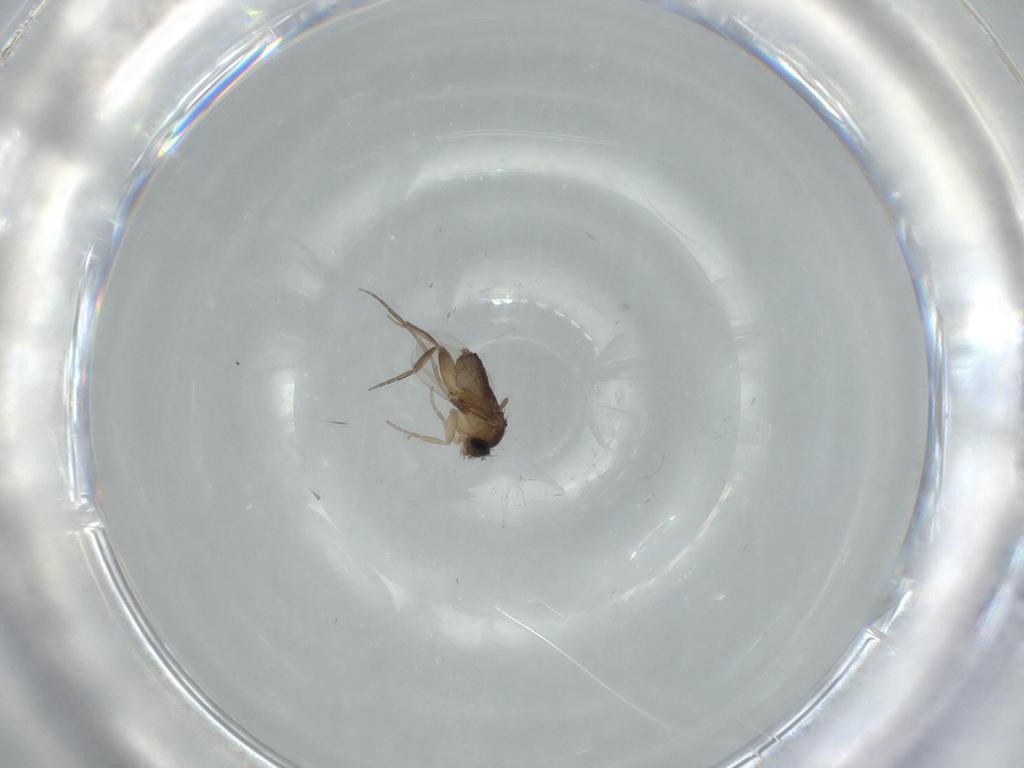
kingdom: Animalia
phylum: Arthropoda
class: Insecta
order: Diptera
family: Phoridae
